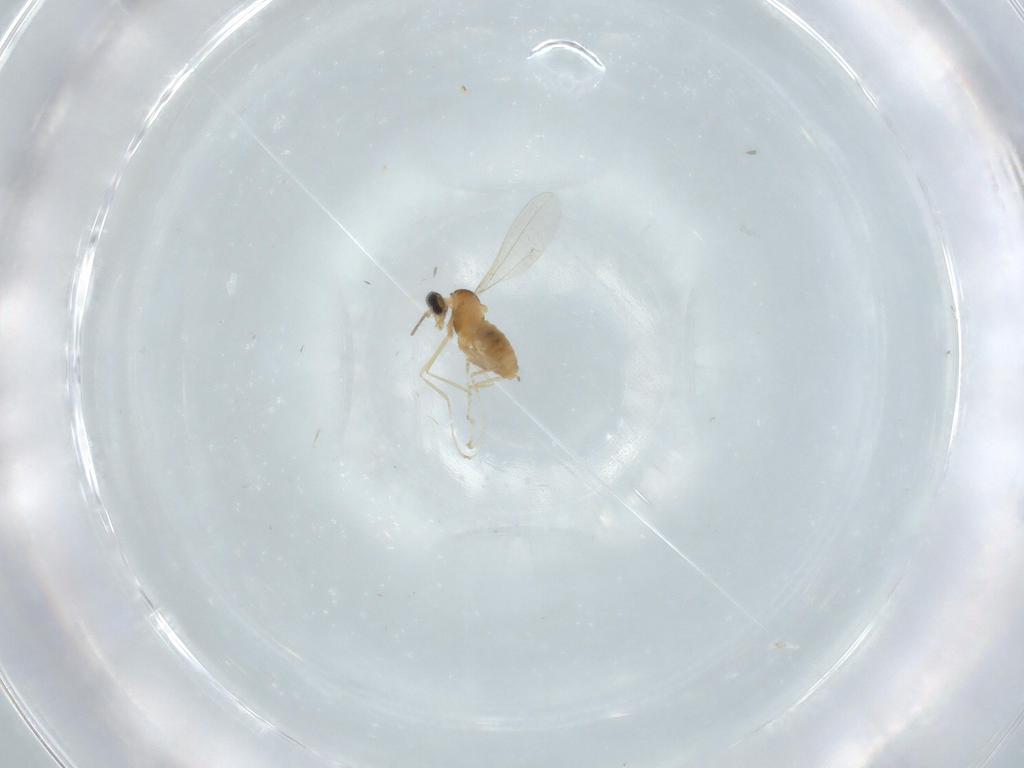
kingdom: Animalia
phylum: Arthropoda
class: Insecta
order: Diptera
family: Cecidomyiidae
